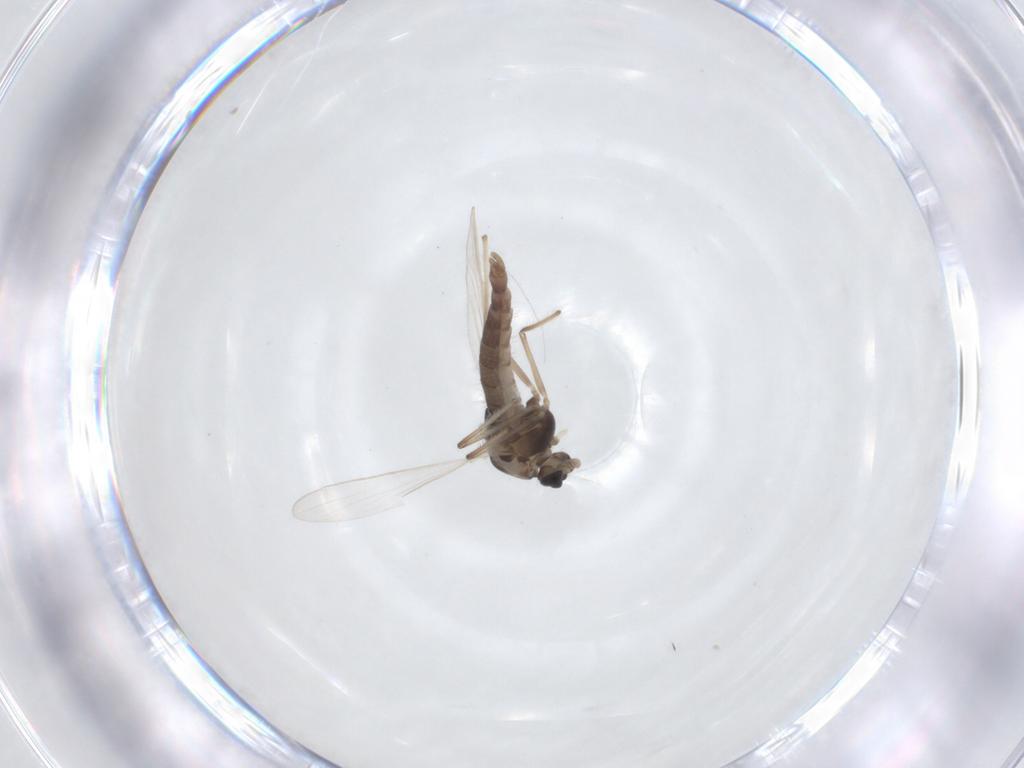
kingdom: Animalia
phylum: Arthropoda
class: Insecta
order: Diptera
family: Chironomidae
